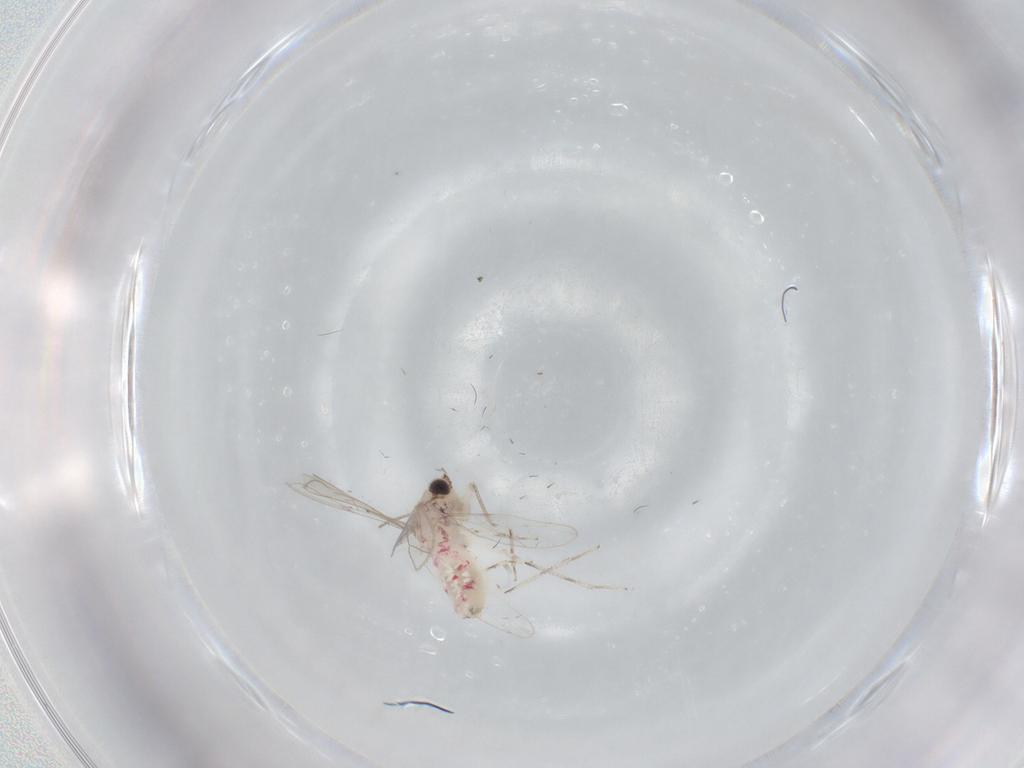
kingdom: Animalia
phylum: Arthropoda
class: Insecta
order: Psocodea
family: Caeciliusidae
